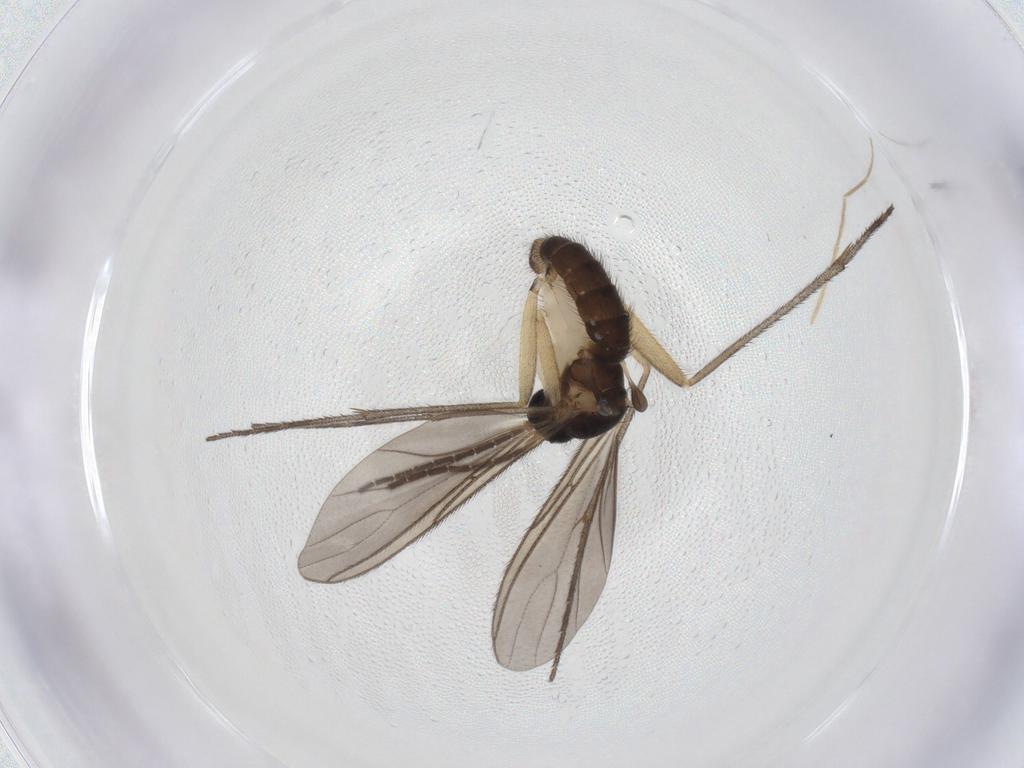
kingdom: Animalia
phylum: Arthropoda
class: Insecta
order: Diptera
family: Sciaridae
